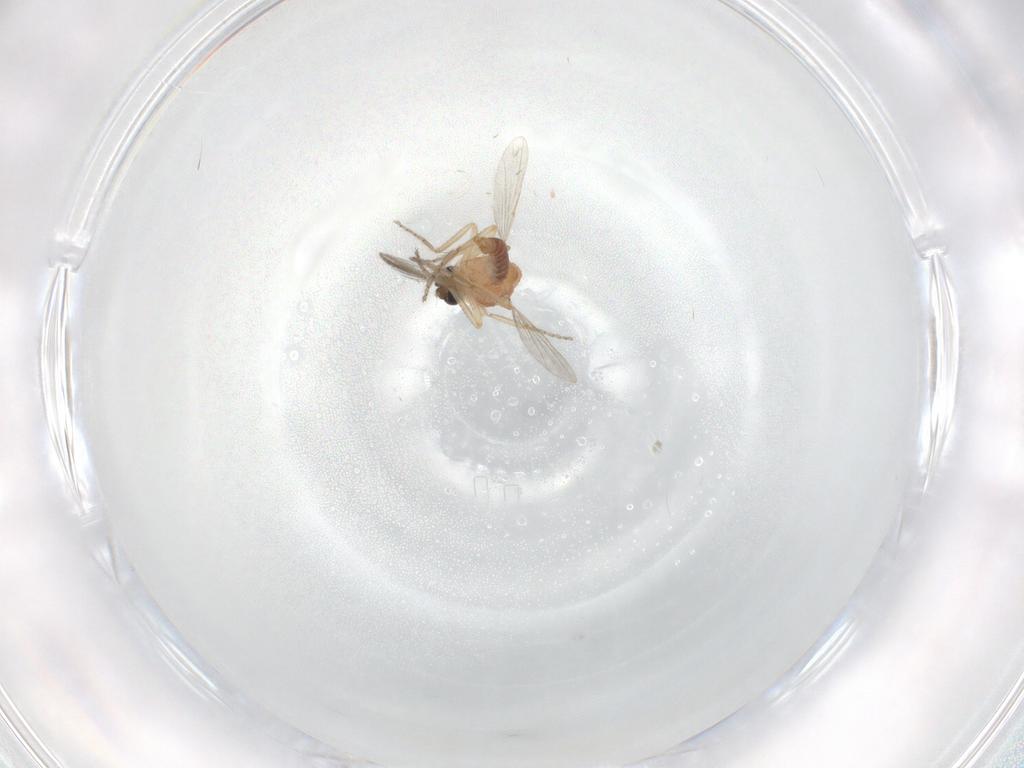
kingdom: Animalia
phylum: Arthropoda
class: Insecta
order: Diptera
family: Ceratopogonidae
